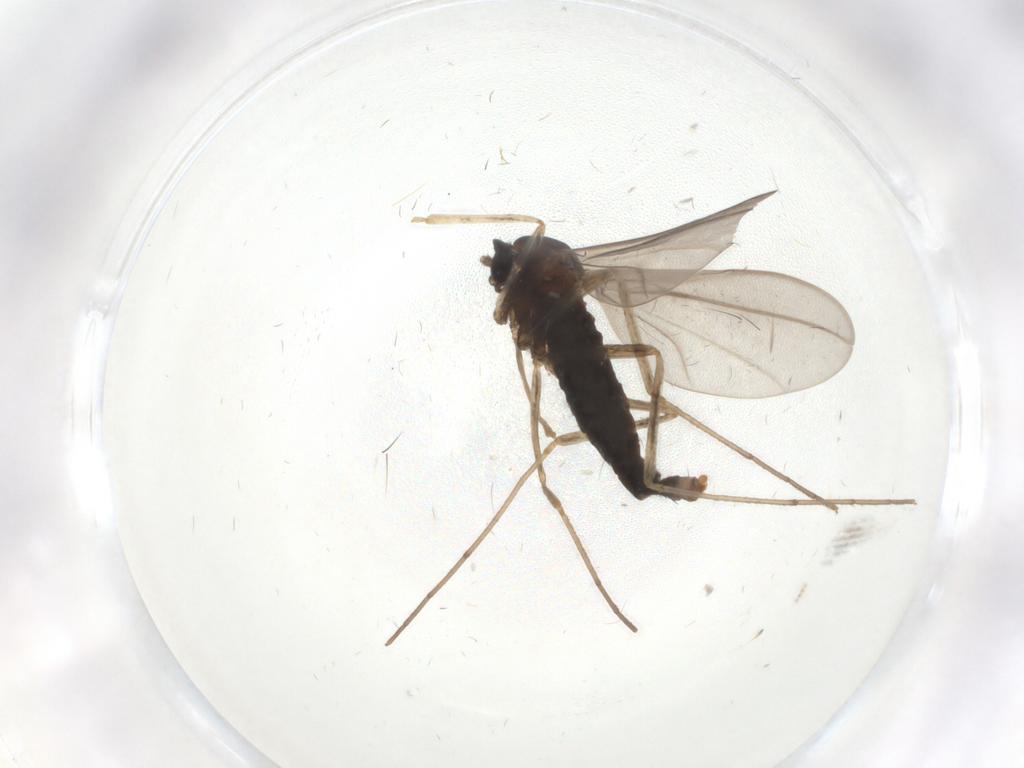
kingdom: Animalia
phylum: Arthropoda
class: Insecta
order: Diptera
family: Cecidomyiidae
